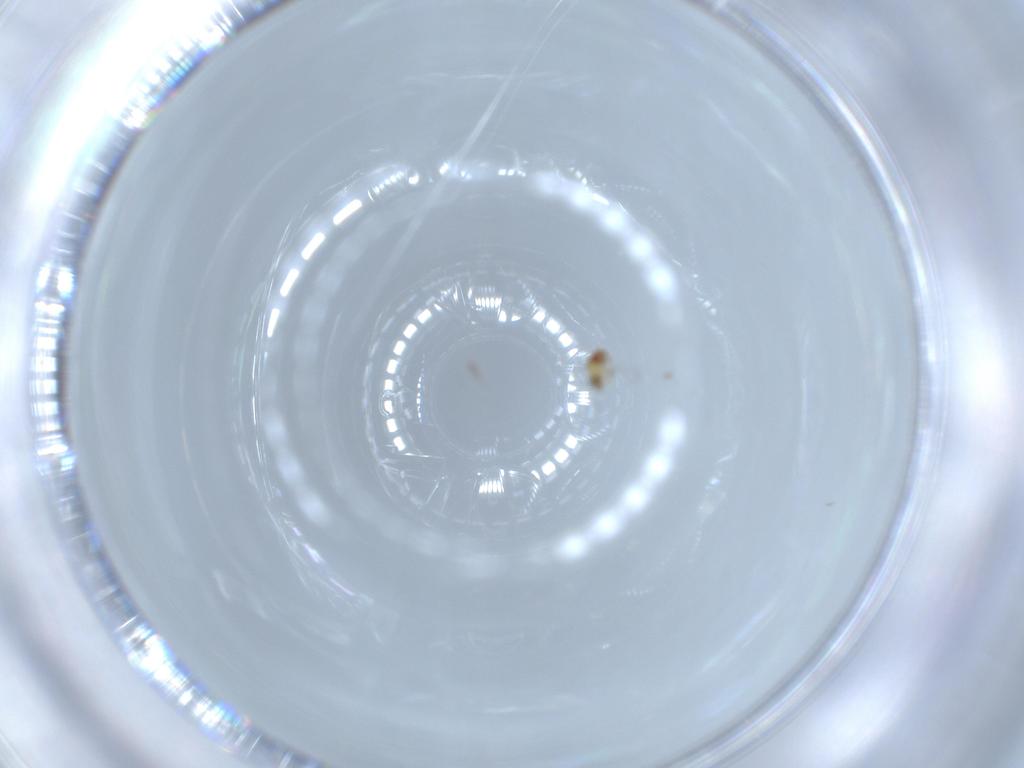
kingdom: Animalia
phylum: Arthropoda
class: Insecta
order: Hymenoptera
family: Trichogrammatidae
